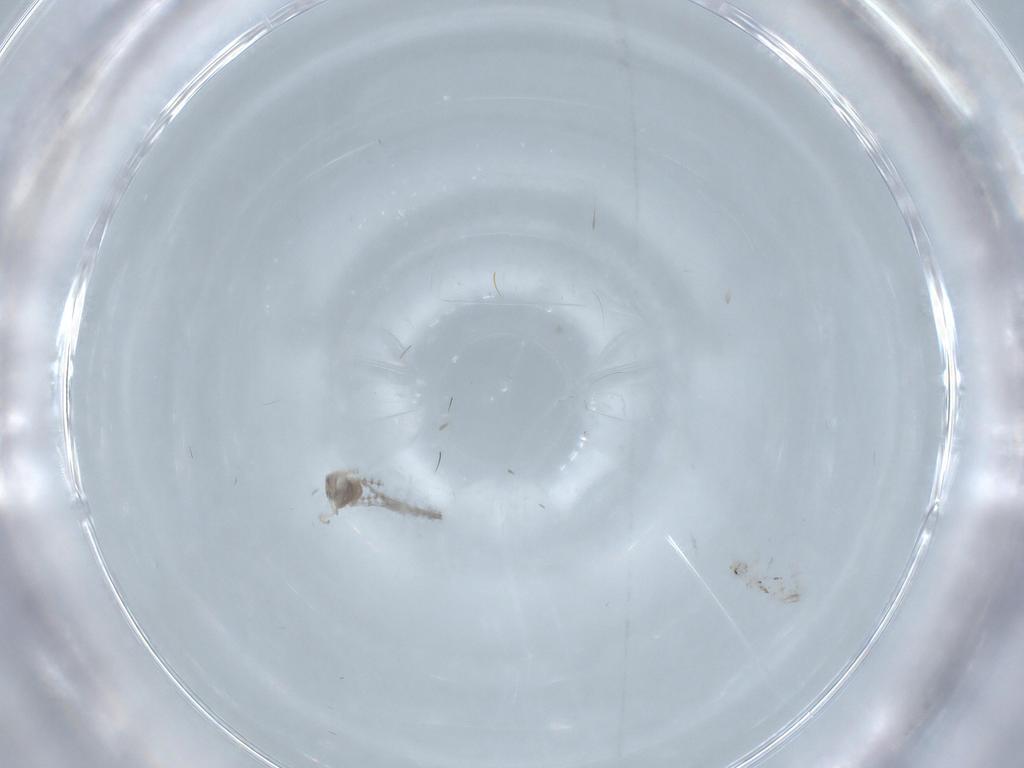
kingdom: Animalia
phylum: Arthropoda
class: Insecta
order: Diptera
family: Cecidomyiidae
